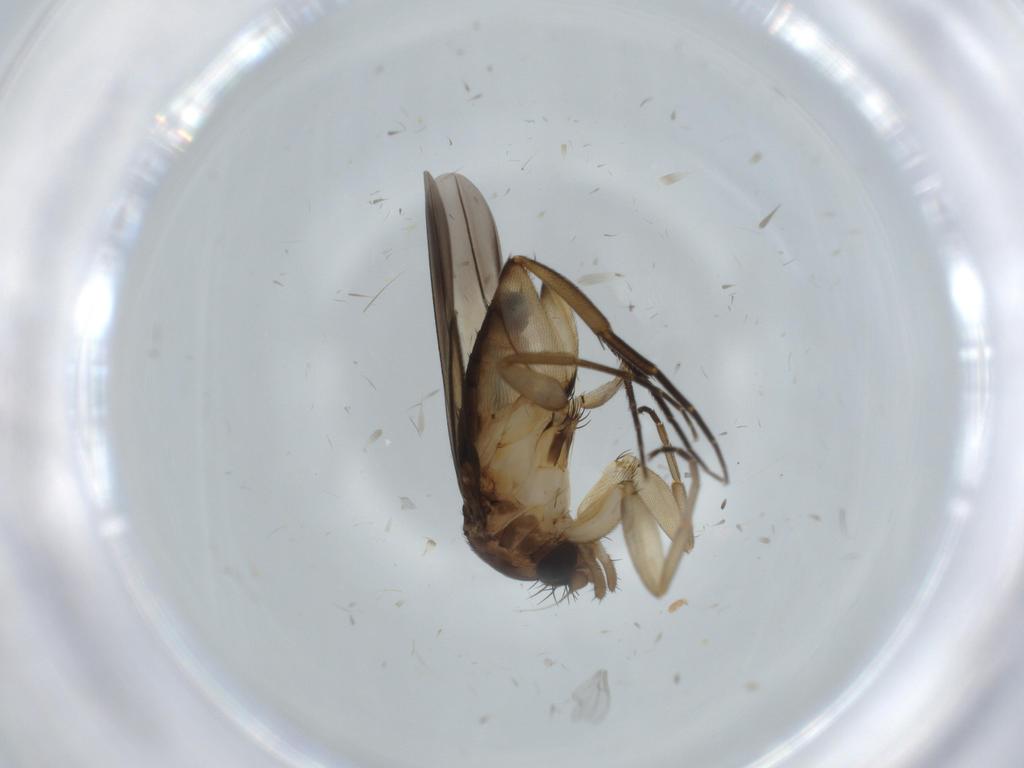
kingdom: Animalia
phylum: Arthropoda
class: Insecta
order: Diptera
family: Phoridae
